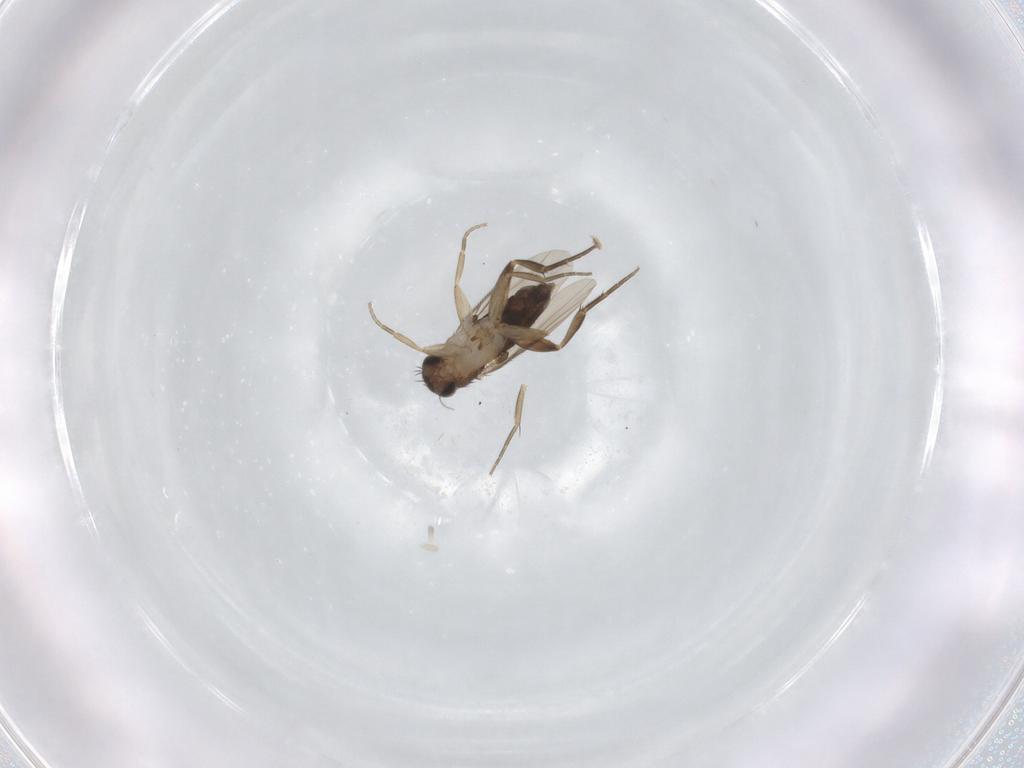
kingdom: Animalia
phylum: Arthropoda
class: Insecta
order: Diptera
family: Phoridae
